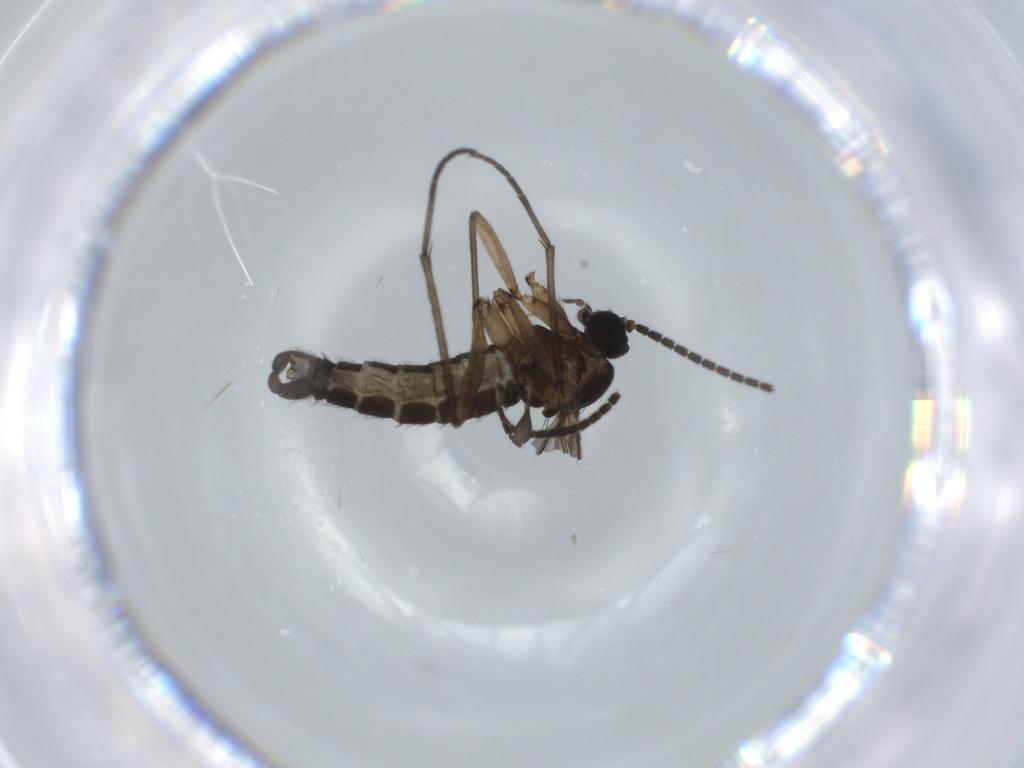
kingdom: Animalia
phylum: Arthropoda
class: Insecta
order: Diptera
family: Sciaridae
